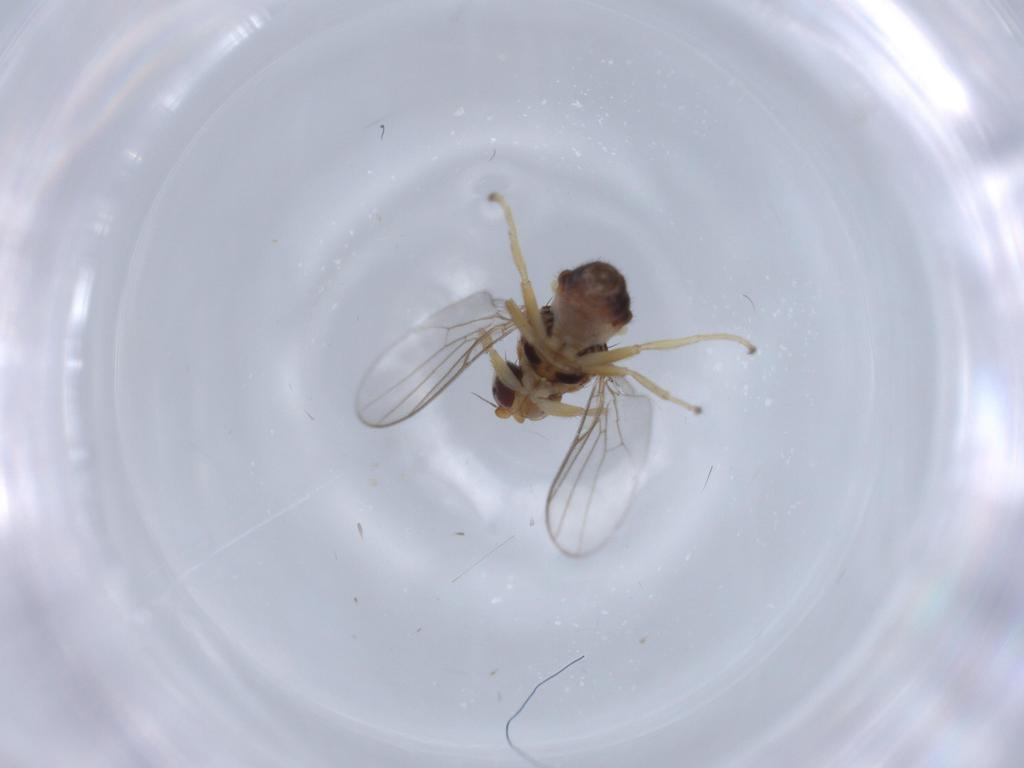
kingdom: Animalia
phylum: Arthropoda
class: Insecta
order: Diptera
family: Chloropidae
